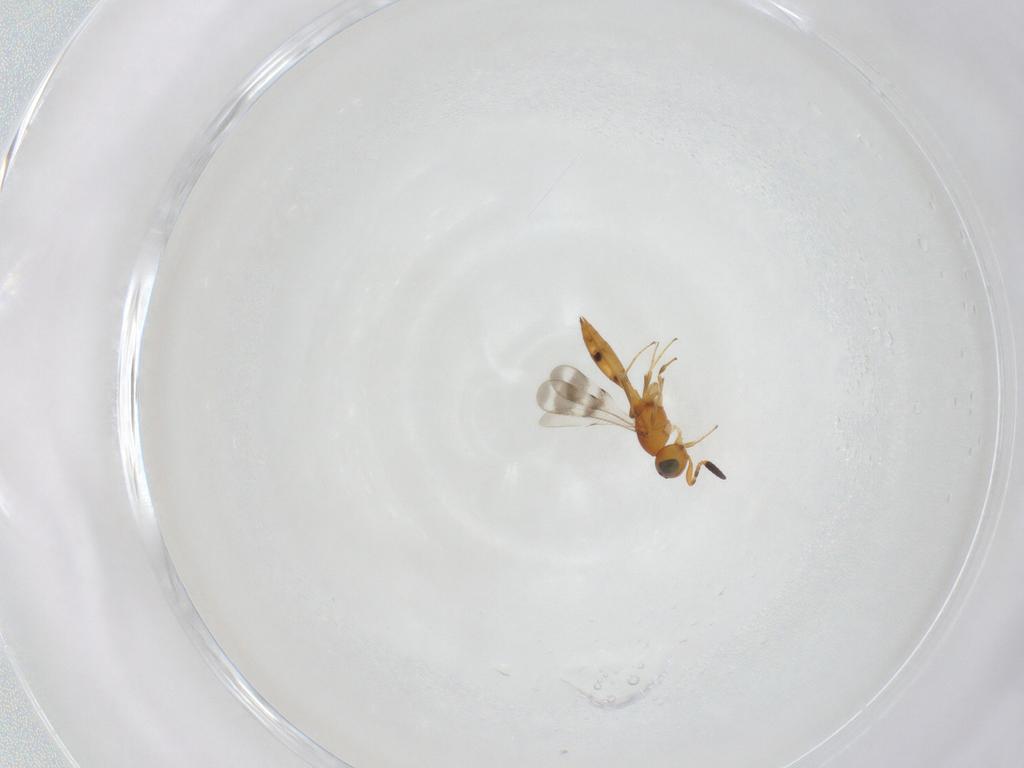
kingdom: Animalia
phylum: Arthropoda
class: Insecta
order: Hymenoptera
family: Scelionidae
